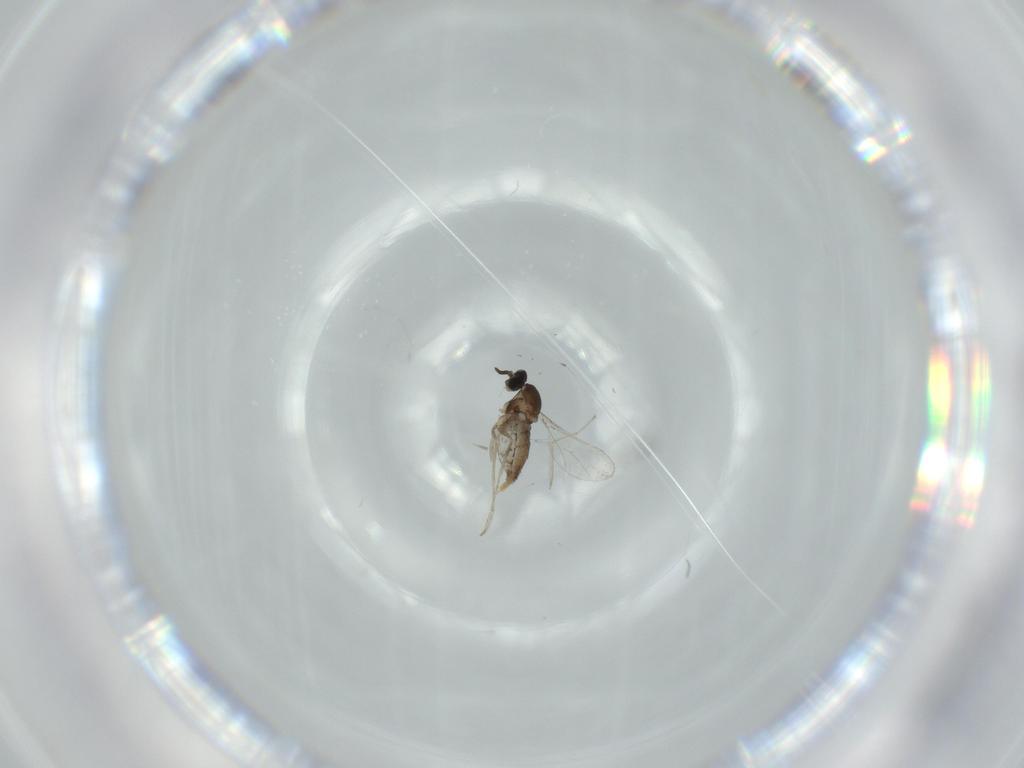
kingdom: Animalia
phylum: Arthropoda
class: Insecta
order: Diptera
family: Cecidomyiidae
